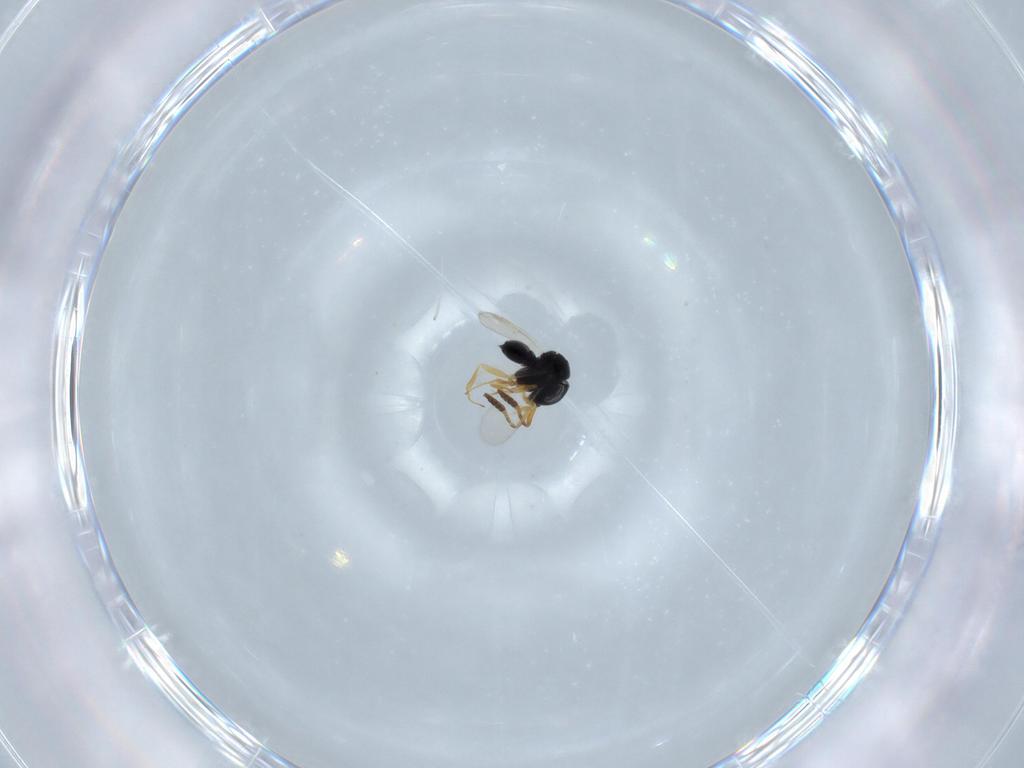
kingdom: Animalia
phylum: Arthropoda
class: Insecta
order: Hymenoptera
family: Scelionidae
